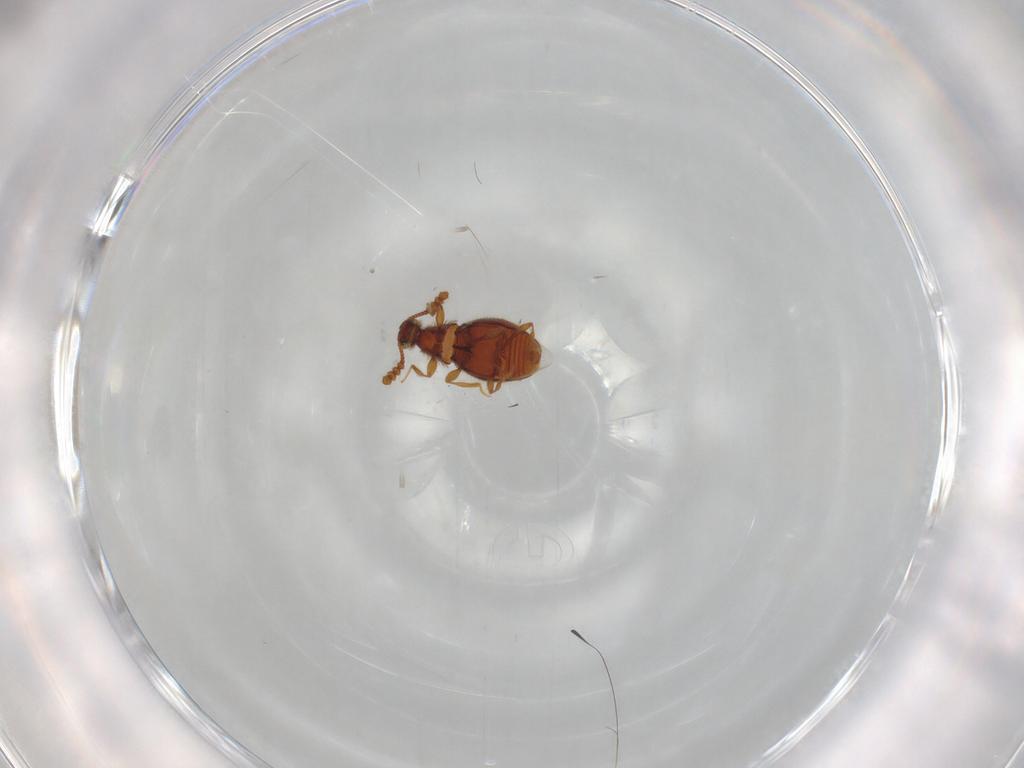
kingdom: Animalia
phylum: Arthropoda
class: Insecta
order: Coleoptera
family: Staphylinidae
